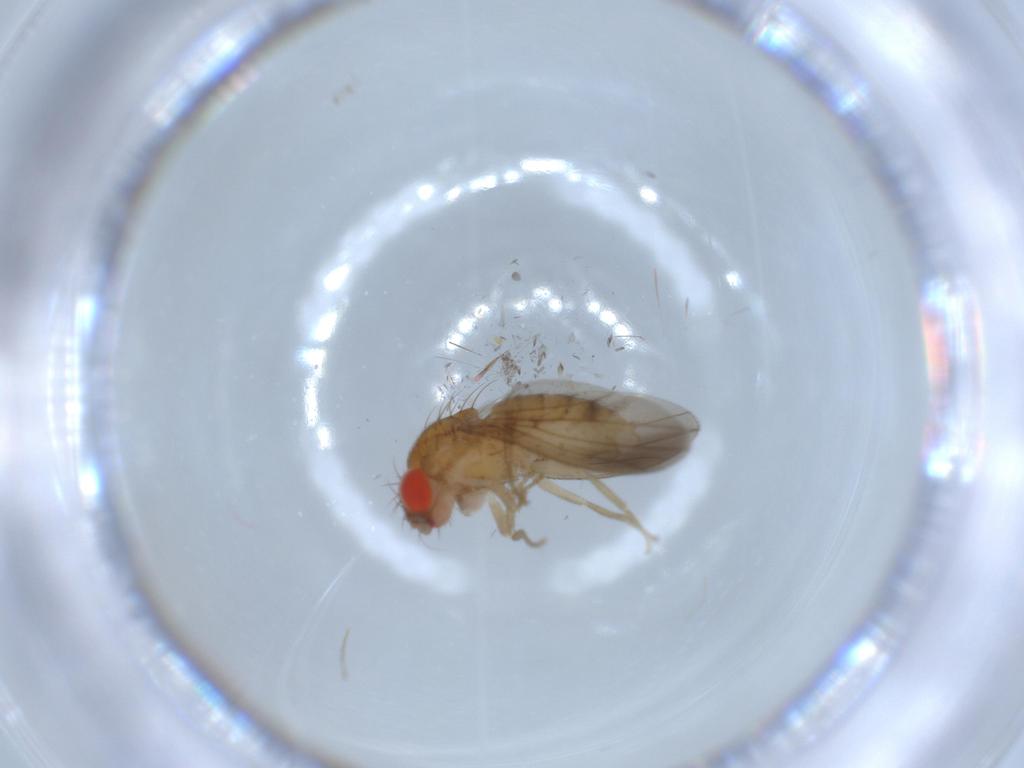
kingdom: Animalia
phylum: Arthropoda
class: Insecta
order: Diptera
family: Drosophilidae
